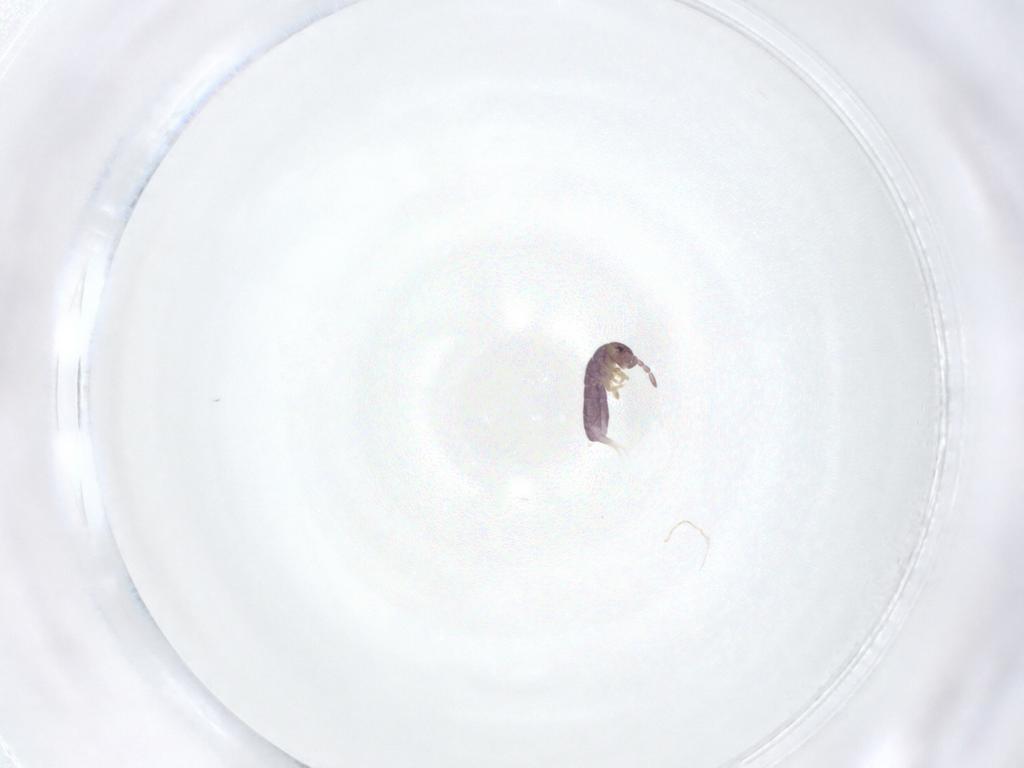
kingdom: Animalia
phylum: Arthropoda
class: Collembola
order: Entomobryomorpha
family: Isotomidae
